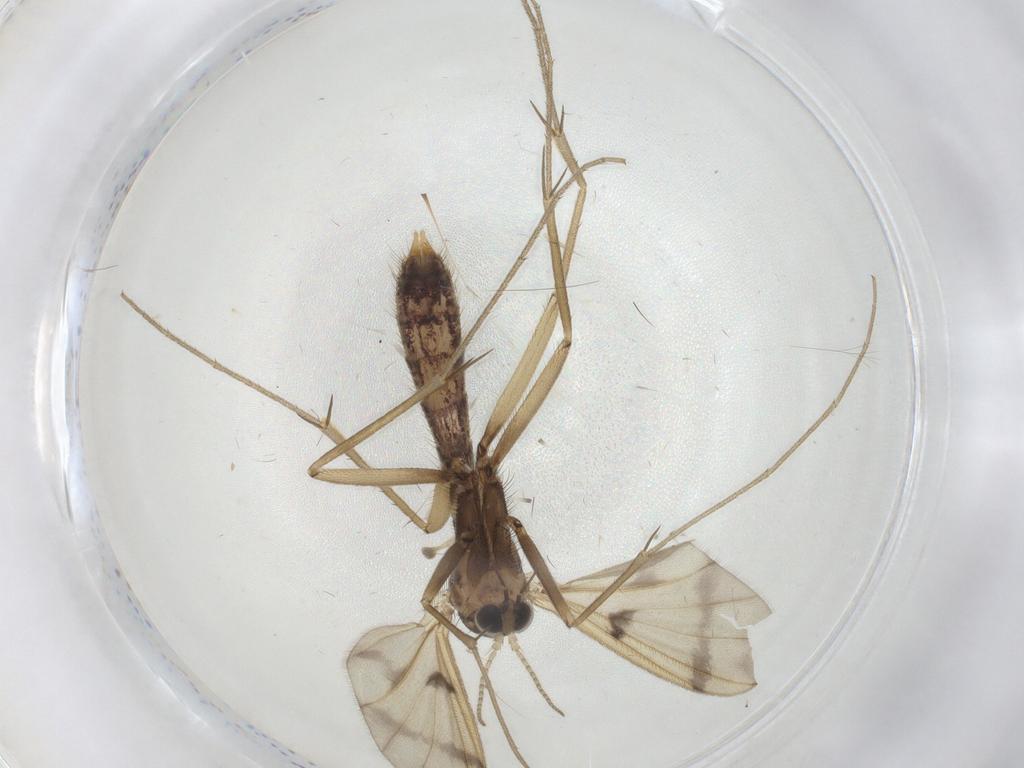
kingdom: Animalia
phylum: Arthropoda
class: Insecta
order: Diptera
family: Mycetophilidae
